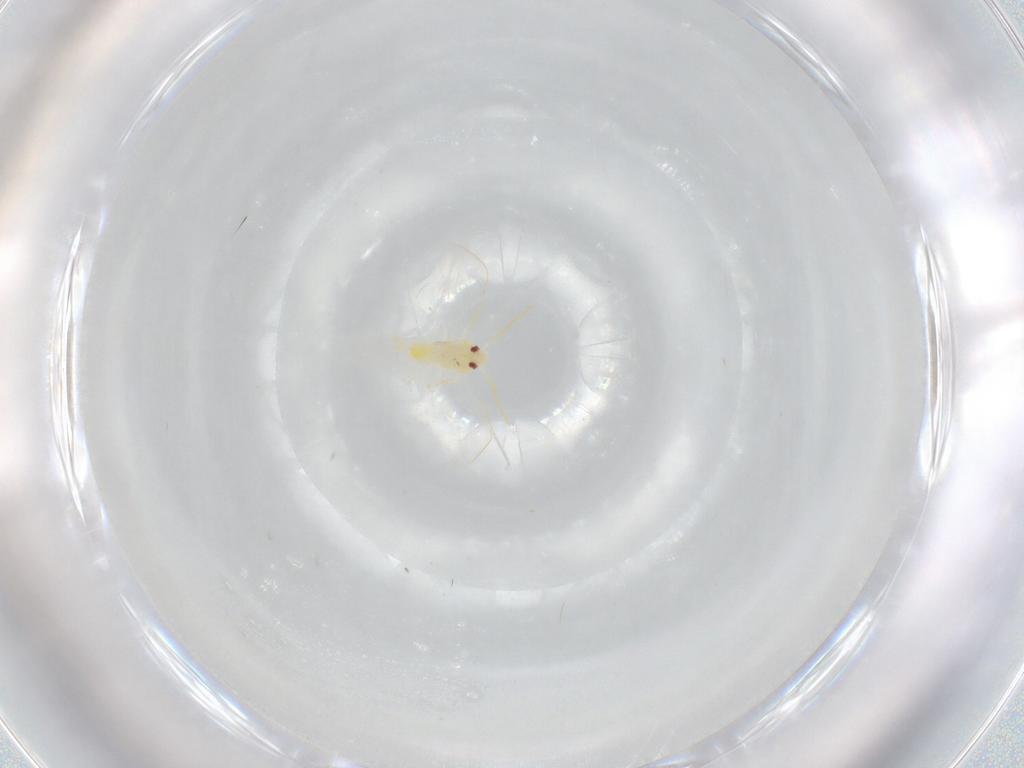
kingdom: Animalia
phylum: Arthropoda
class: Insecta
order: Hemiptera
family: Aleyrodidae
